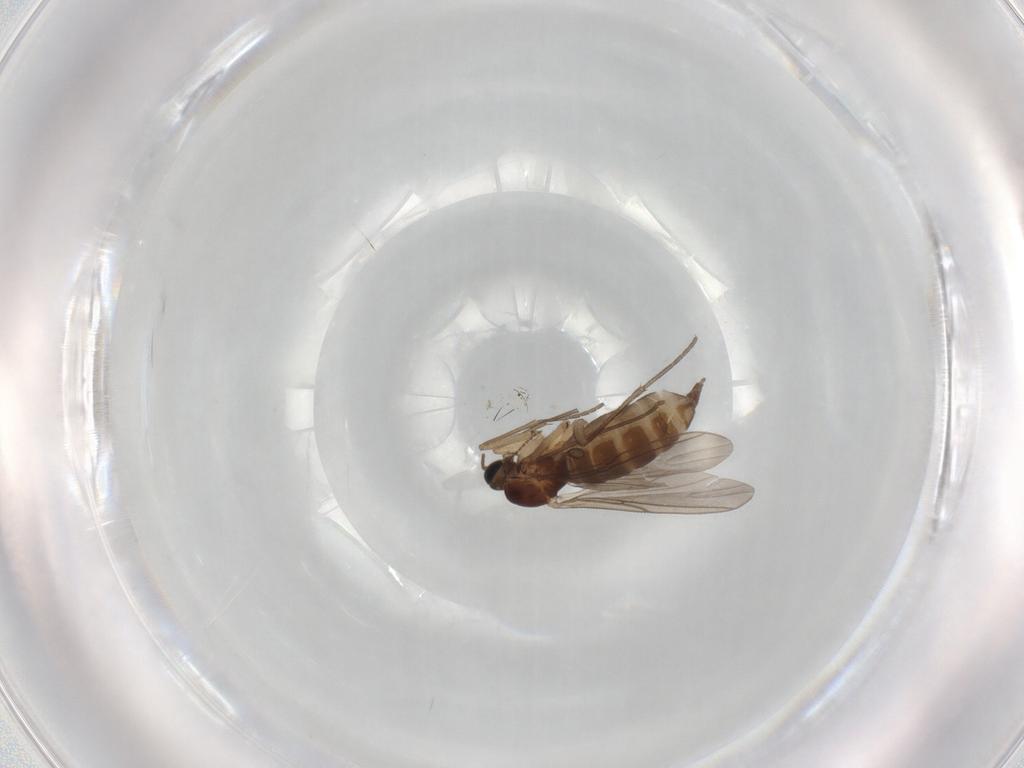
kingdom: Animalia
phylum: Arthropoda
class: Insecta
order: Diptera
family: Sciaridae
